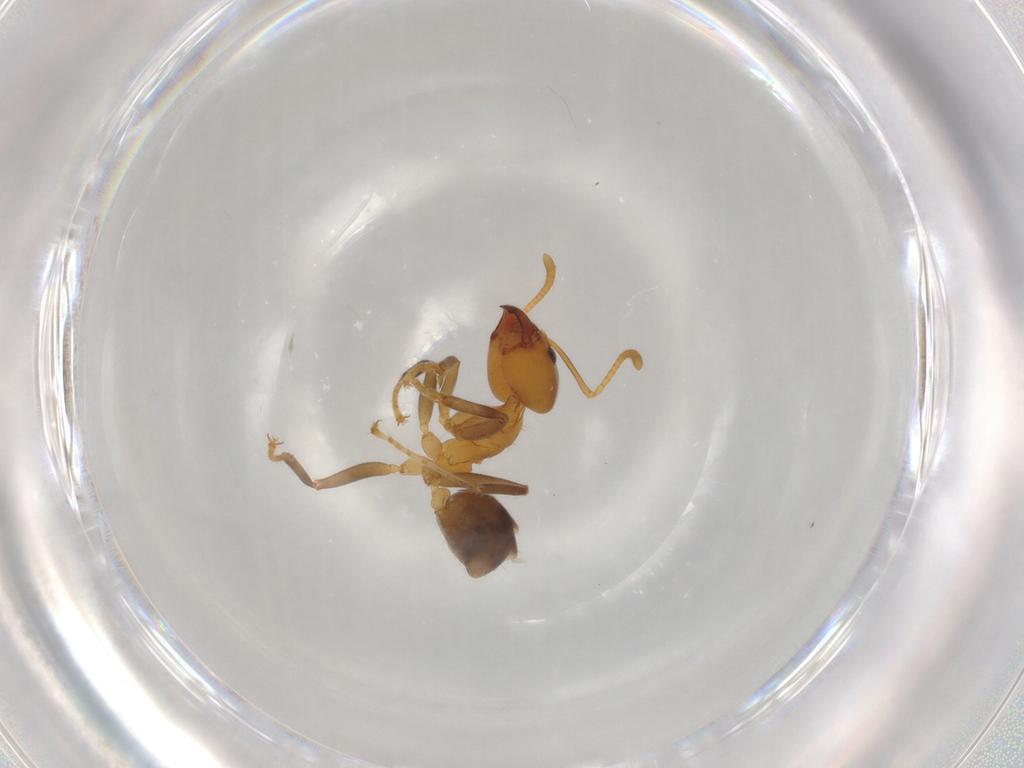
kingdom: Animalia
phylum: Arthropoda
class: Insecta
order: Hymenoptera
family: Formicidae
